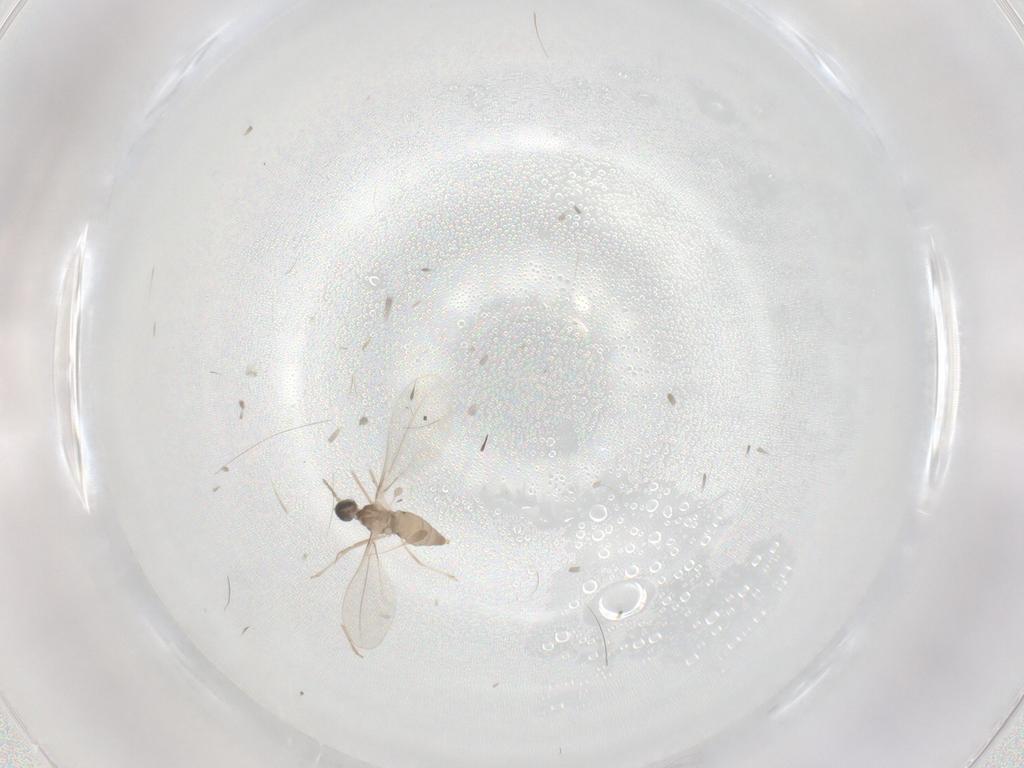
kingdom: Animalia
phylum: Arthropoda
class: Insecta
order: Diptera
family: Cecidomyiidae
